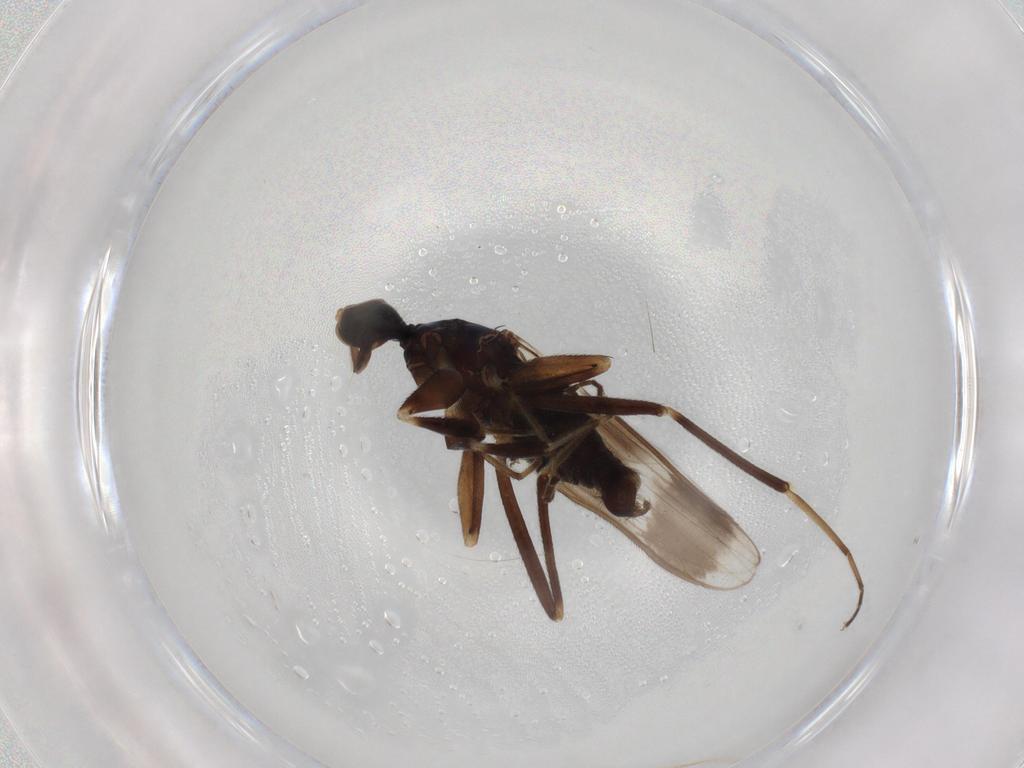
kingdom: Animalia
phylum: Arthropoda
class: Insecta
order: Diptera
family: Hybotidae
